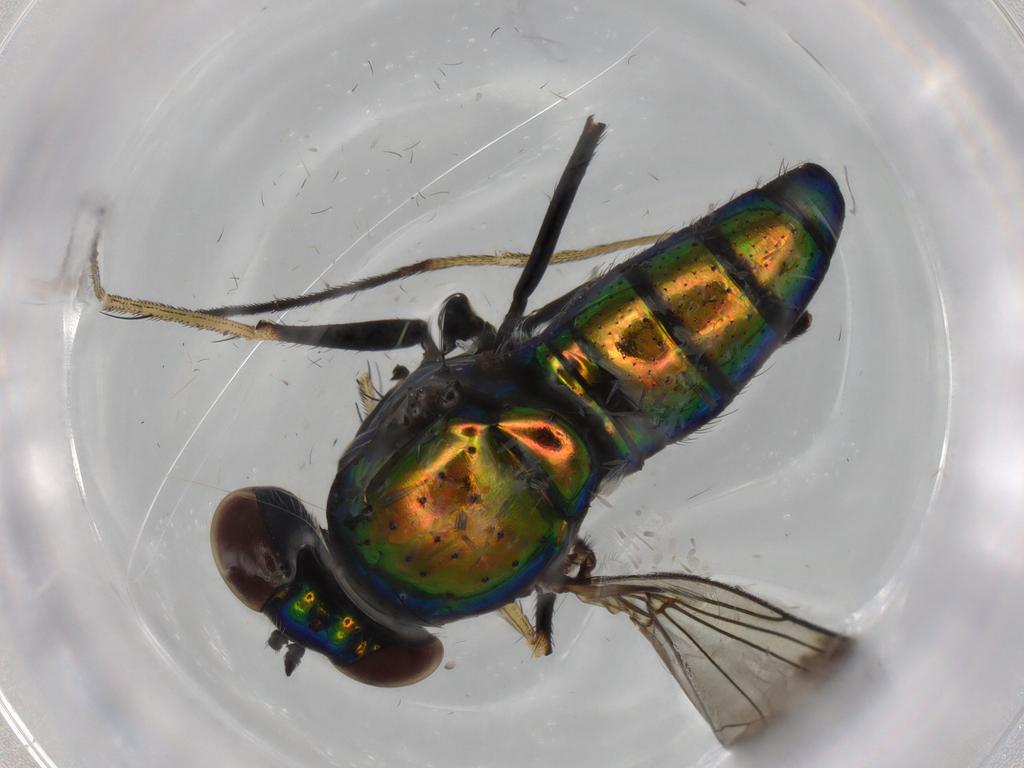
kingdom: Animalia
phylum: Arthropoda
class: Insecta
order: Diptera
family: Dolichopodidae
